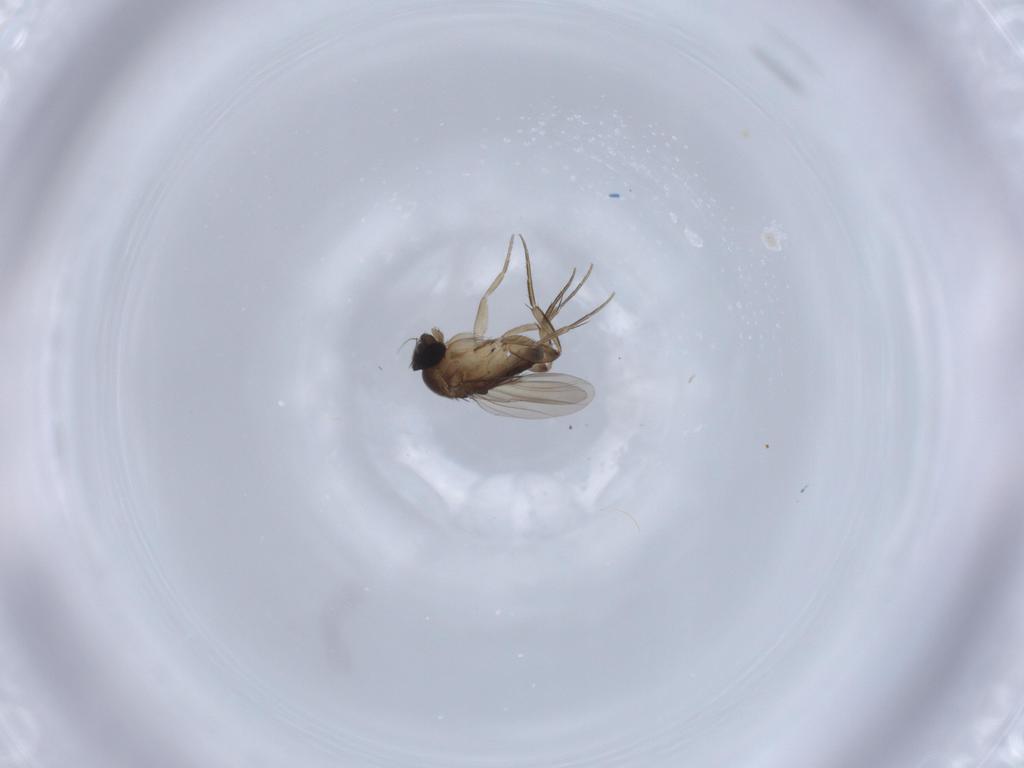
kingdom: Animalia
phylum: Arthropoda
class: Insecta
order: Diptera
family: Phoridae
